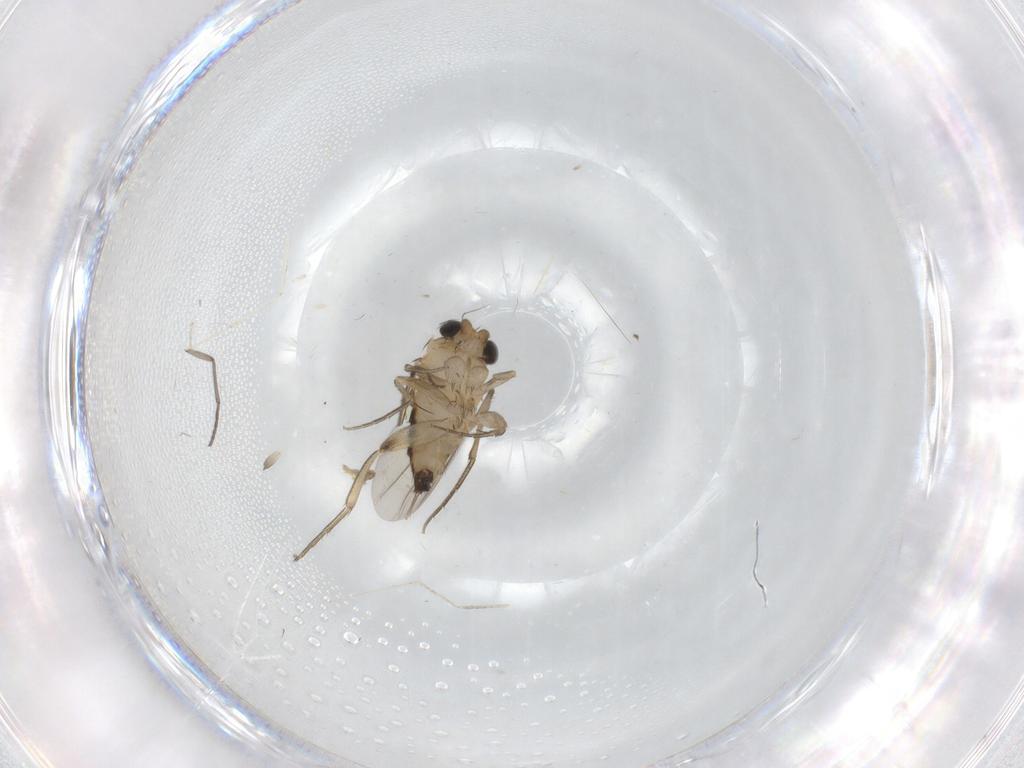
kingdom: Animalia
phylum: Arthropoda
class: Insecta
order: Diptera
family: Phoridae
